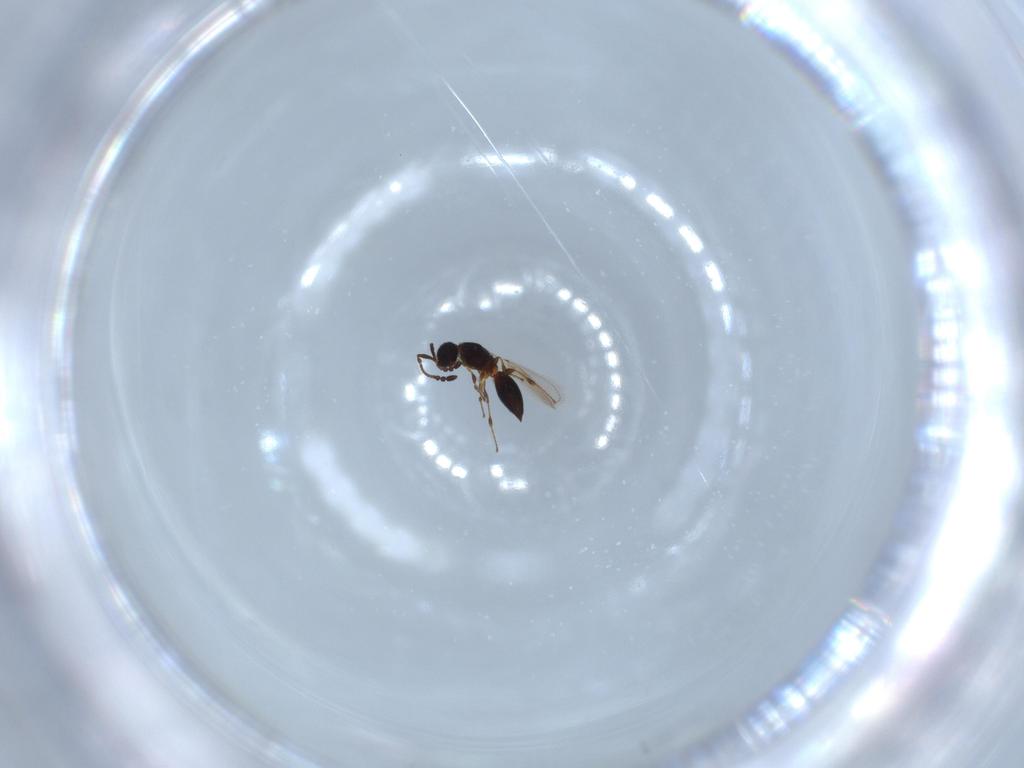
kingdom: Animalia
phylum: Arthropoda
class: Insecta
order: Hymenoptera
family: Diapriidae
